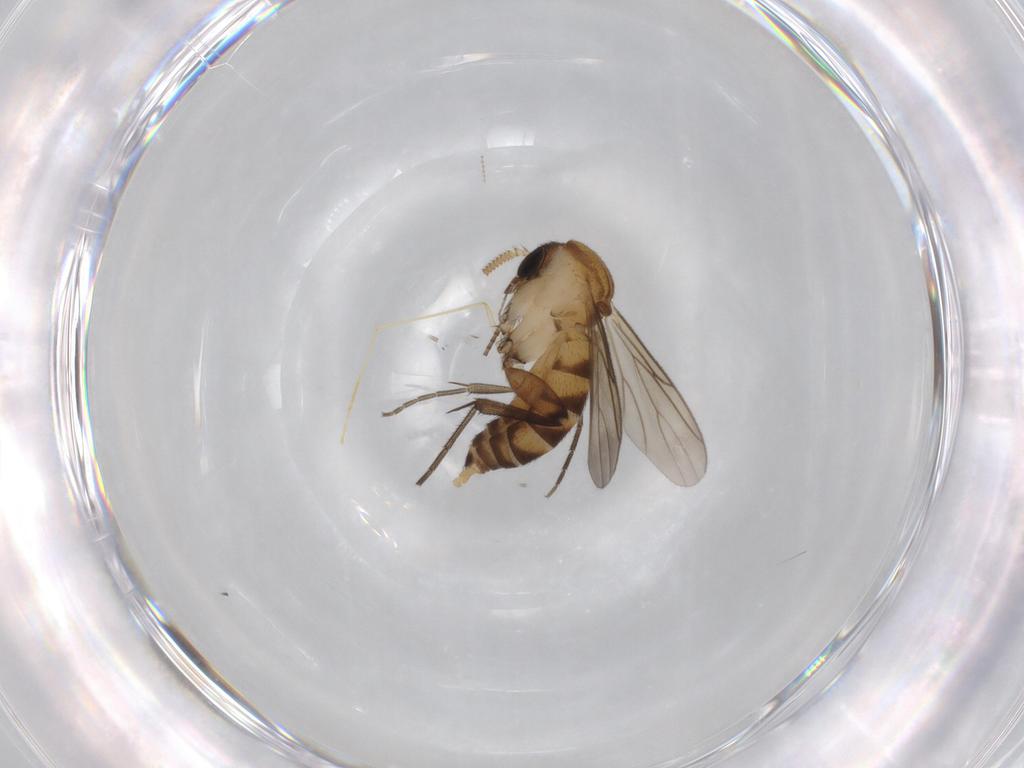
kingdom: Animalia
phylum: Arthropoda
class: Insecta
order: Diptera
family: Mycetophilidae
